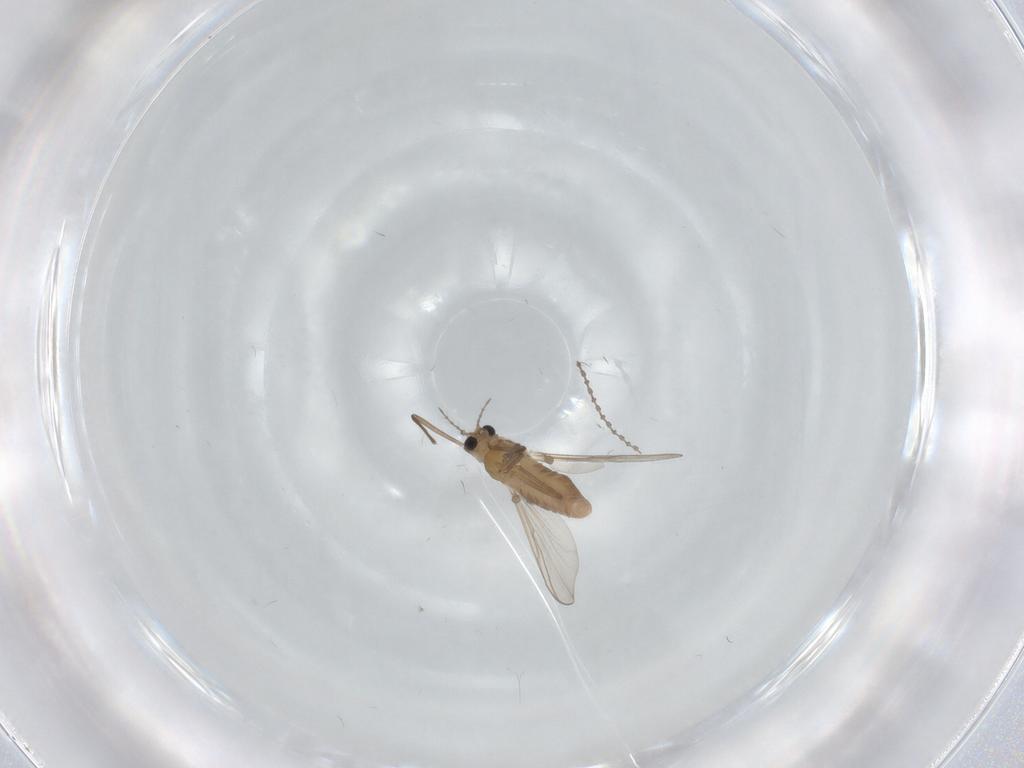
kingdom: Animalia
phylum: Arthropoda
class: Insecta
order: Diptera
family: Chironomidae
